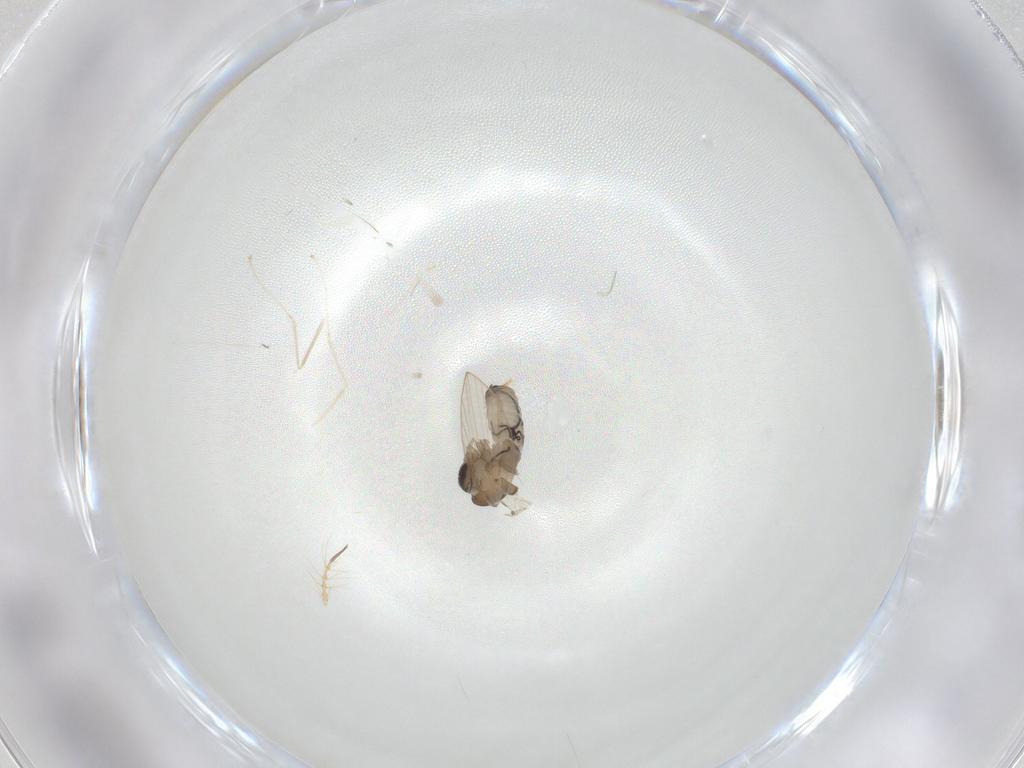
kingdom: Animalia
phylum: Arthropoda
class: Insecta
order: Diptera
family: Psychodidae
